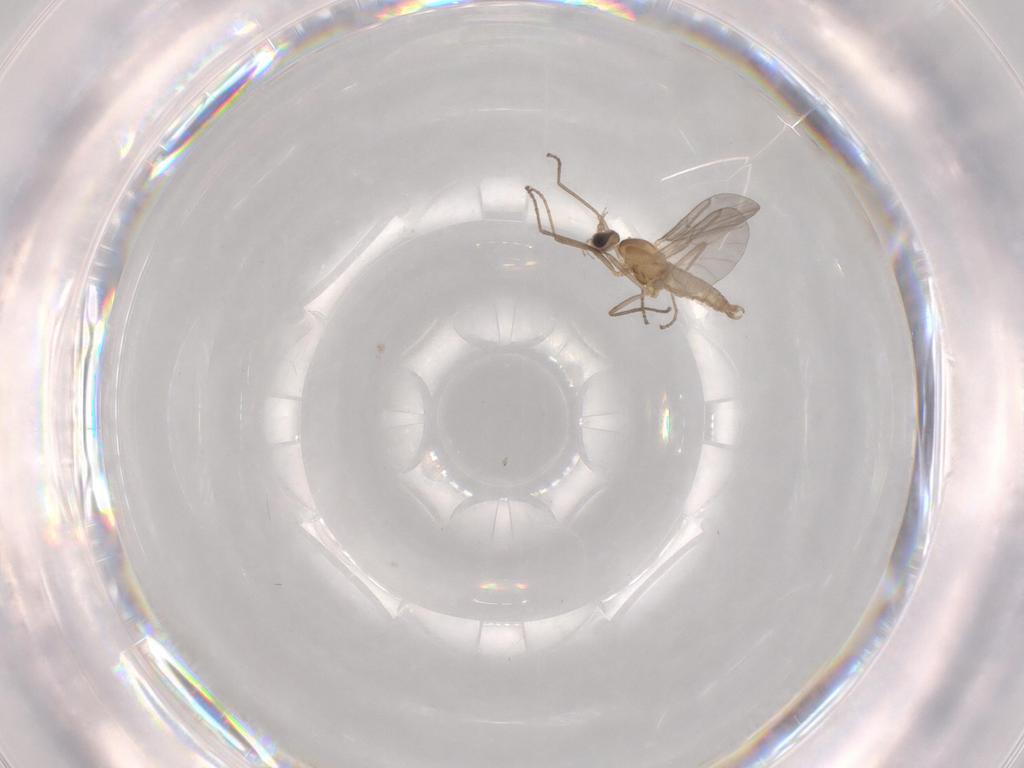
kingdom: Animalia
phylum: Arthropoda
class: Insecta
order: Diptera
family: Cecidomyiidae
